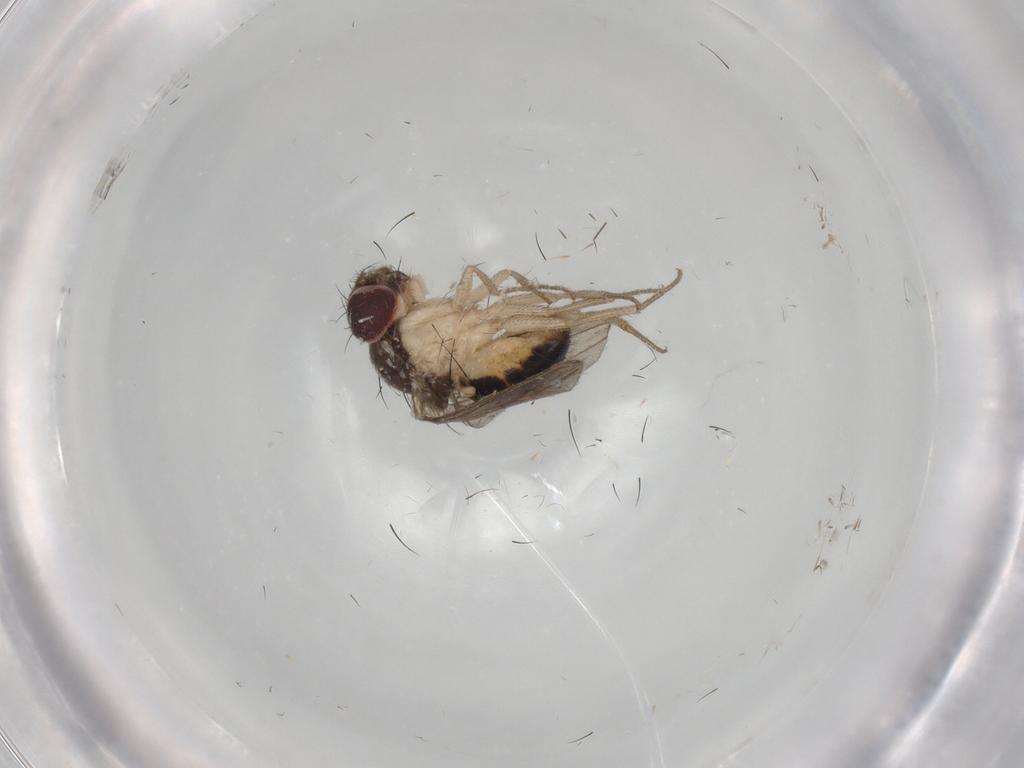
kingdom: Animalia
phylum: Arthropoda
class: Insecta
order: Diptera
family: Drosophilidae
